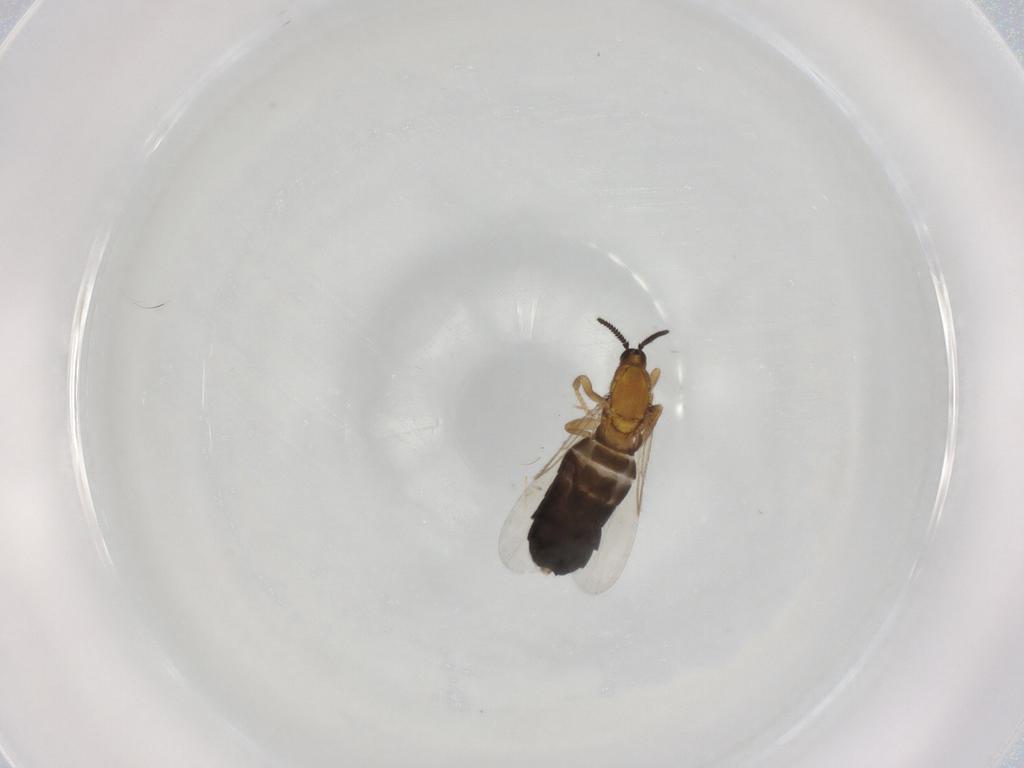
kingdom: Animalia
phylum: Arthropoda
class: Insecta
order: Diptera
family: Scatopsidae
